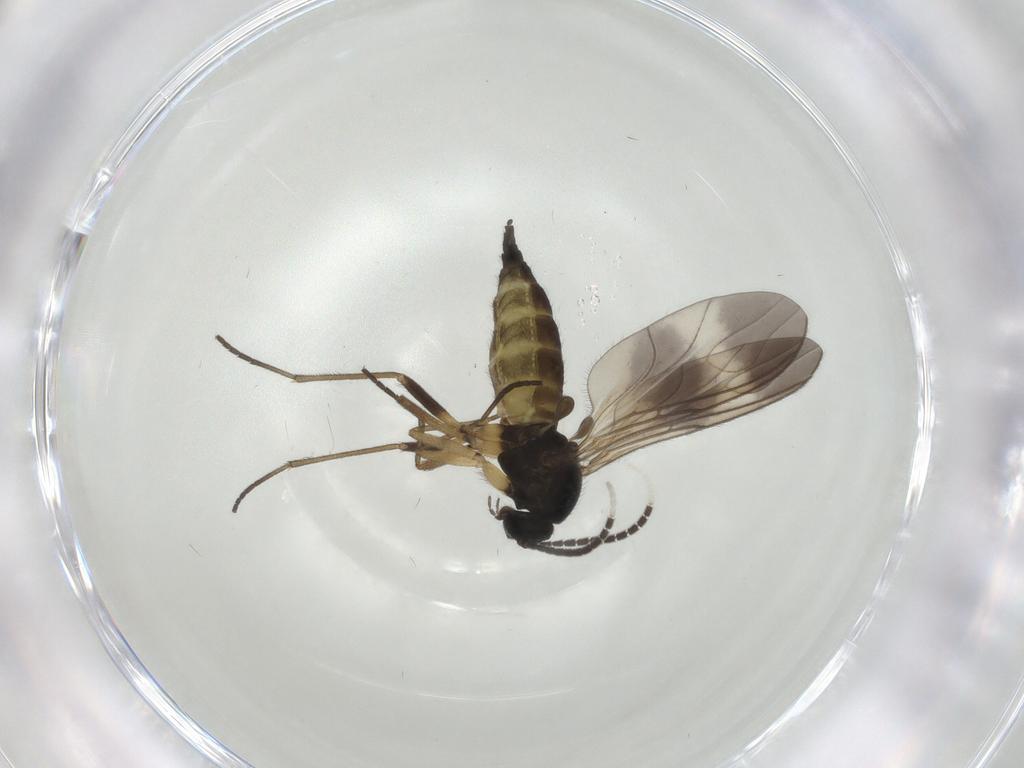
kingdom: Animalia
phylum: Arthropoda
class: Insecta
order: Diptera
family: Sciaridae
